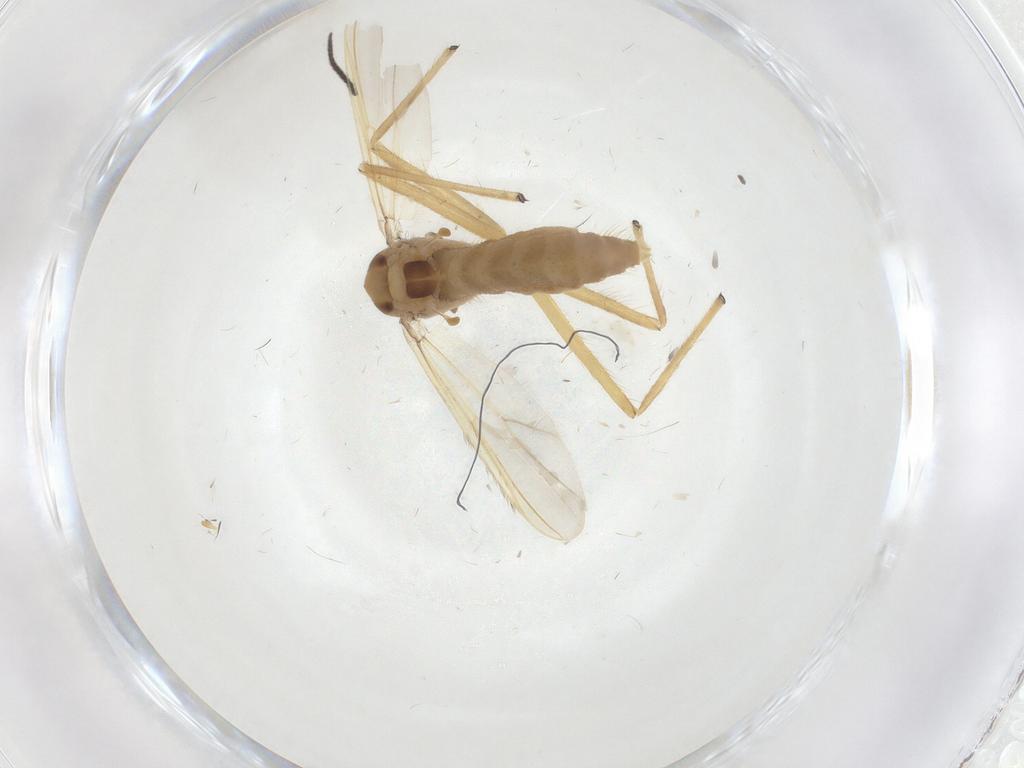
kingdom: Animalia
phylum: Arthropoda
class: Insecta
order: Diptera
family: Chironomidae
